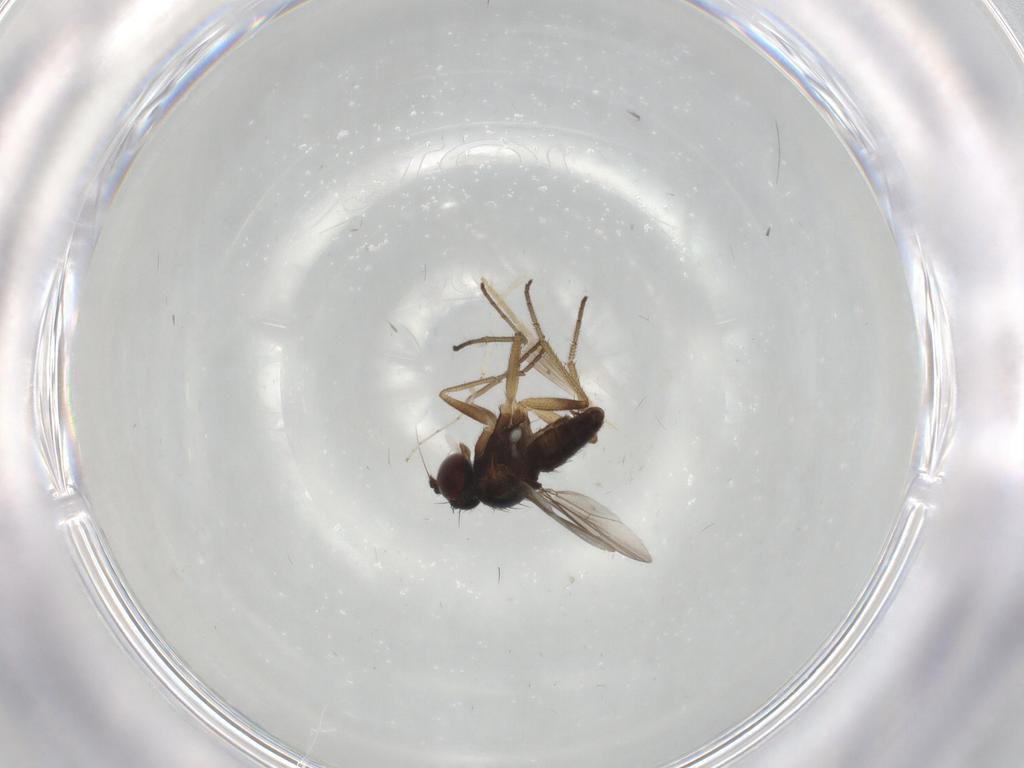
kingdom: Animalia
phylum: Arthropoda
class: Insecta
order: Diptera
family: Dolichopodidae
